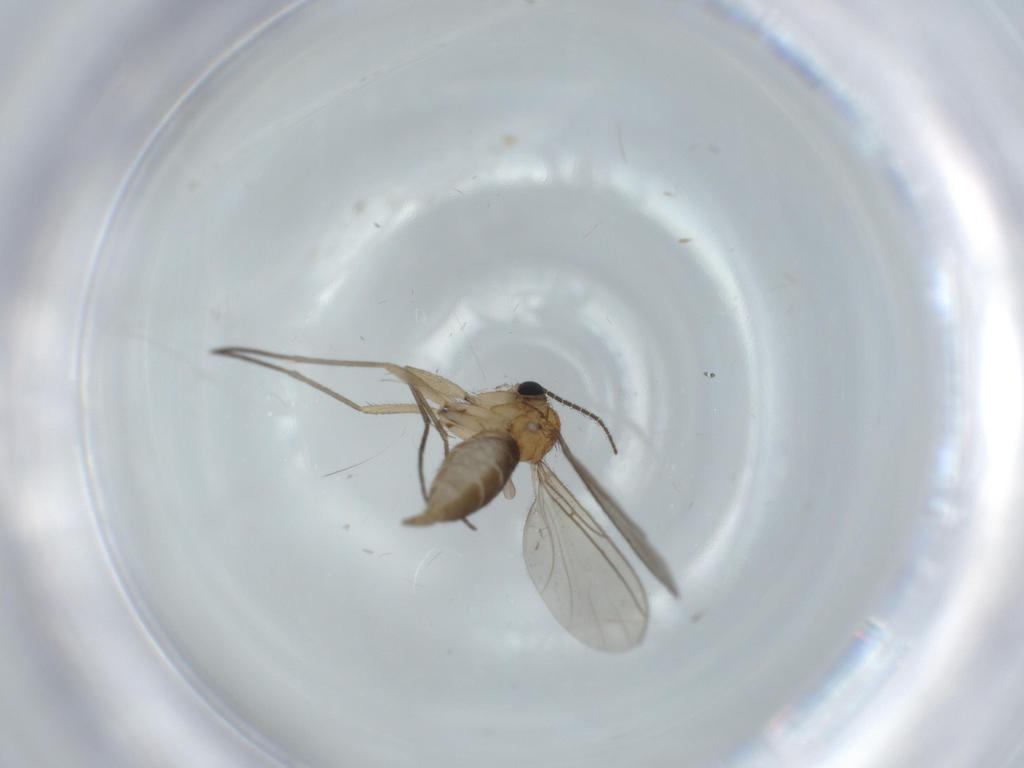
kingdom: Animalia
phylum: Arthropoda
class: Insecta
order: Diptera
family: Sciaridae
